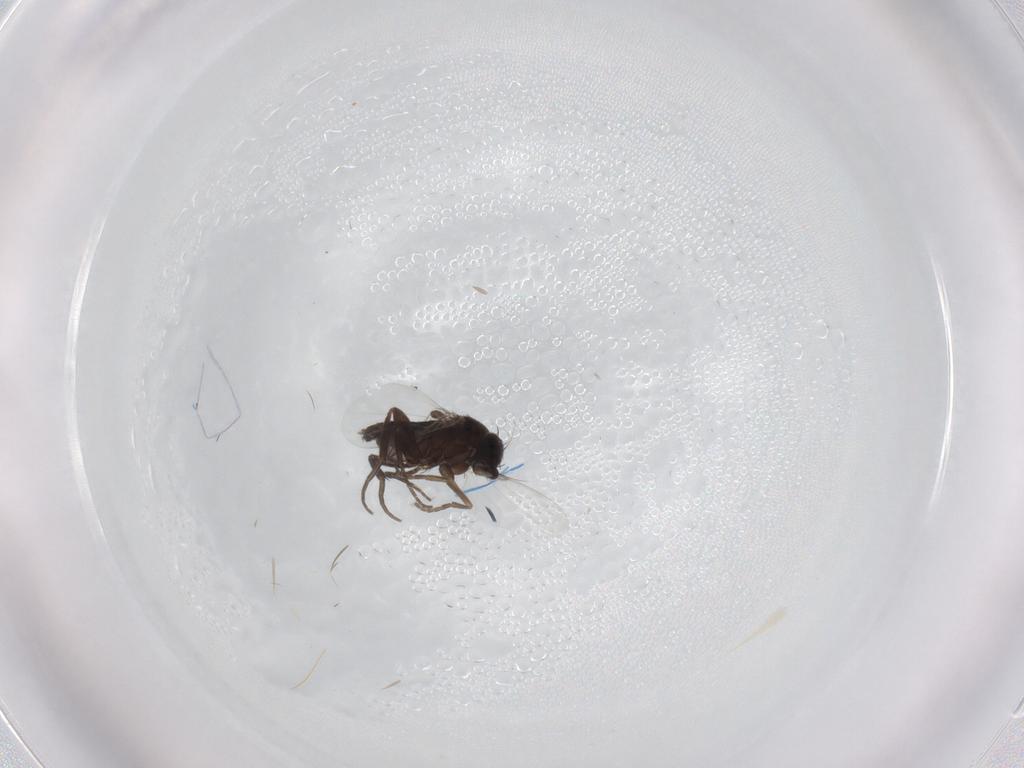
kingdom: Animalia
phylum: Arthropoda
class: Insecta
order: Diptera
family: Phoridae
